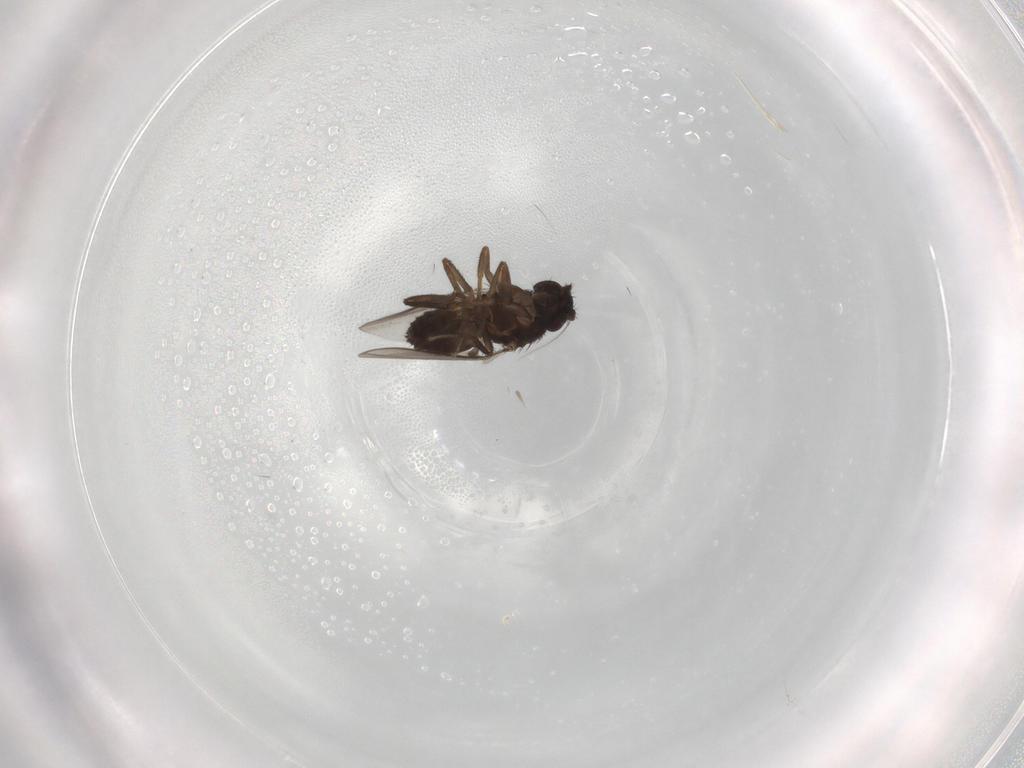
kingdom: Animalia
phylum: Arthropoda
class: Insecta
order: Diptera
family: Sphaeroceridae
